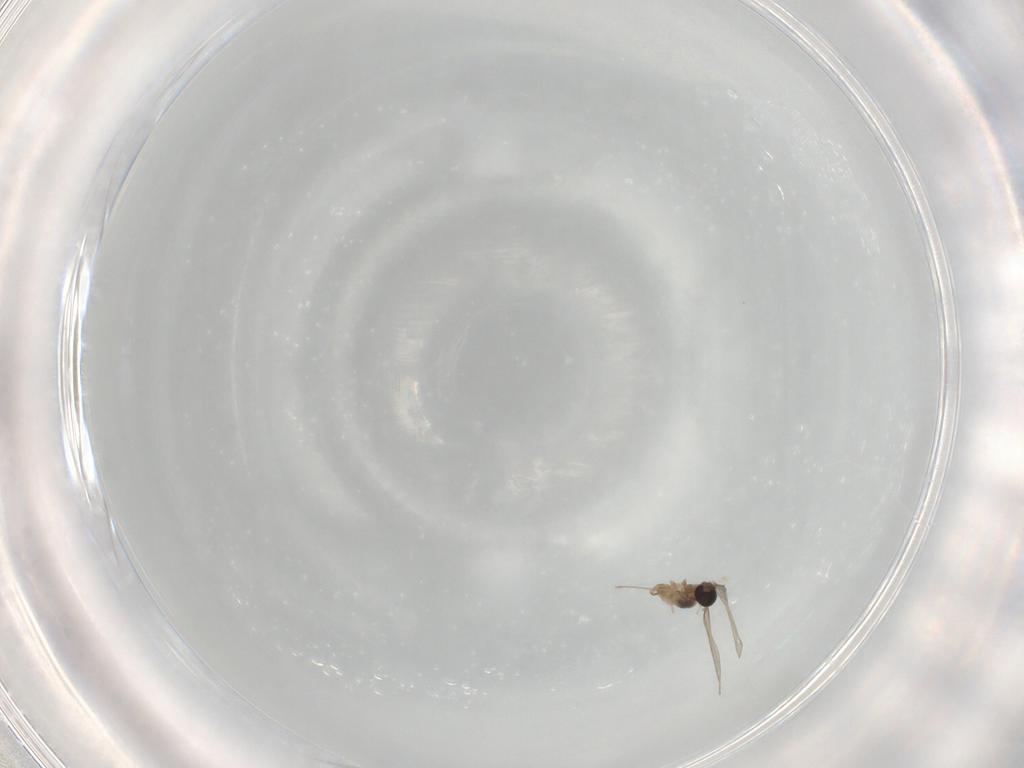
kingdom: Animalia
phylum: Arthropoda
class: Insecta
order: Diptera
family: Cecidomyiidae
